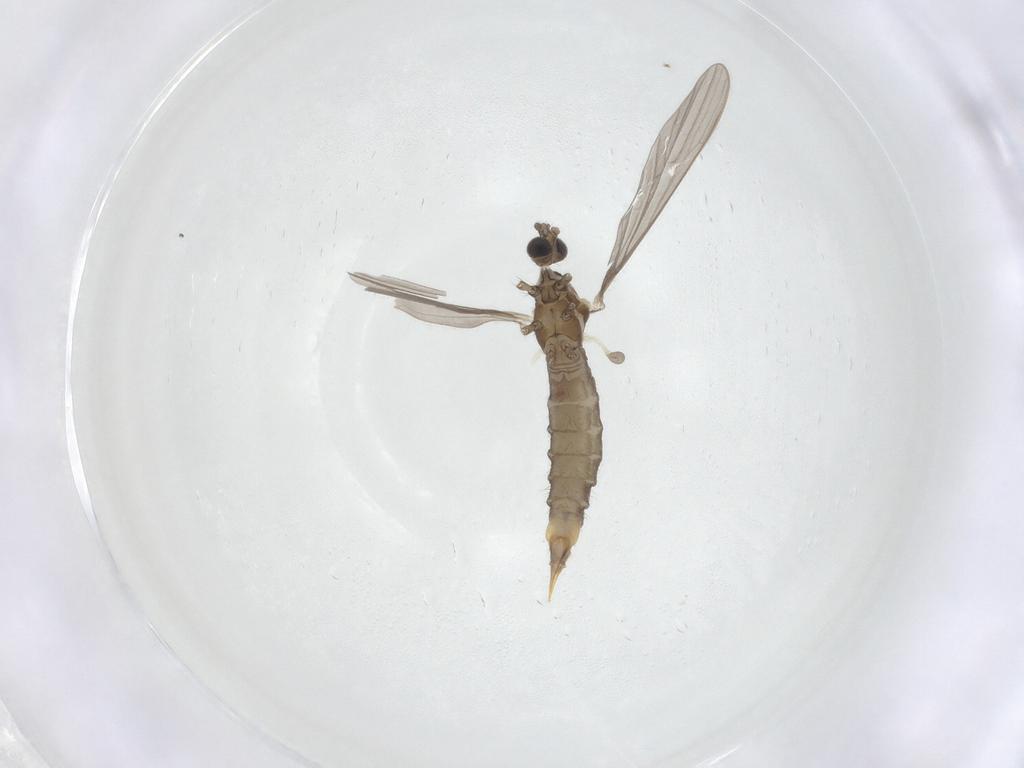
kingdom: Animalia
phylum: Arthropoda
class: Insecta
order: Diptera
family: Limoniidae
